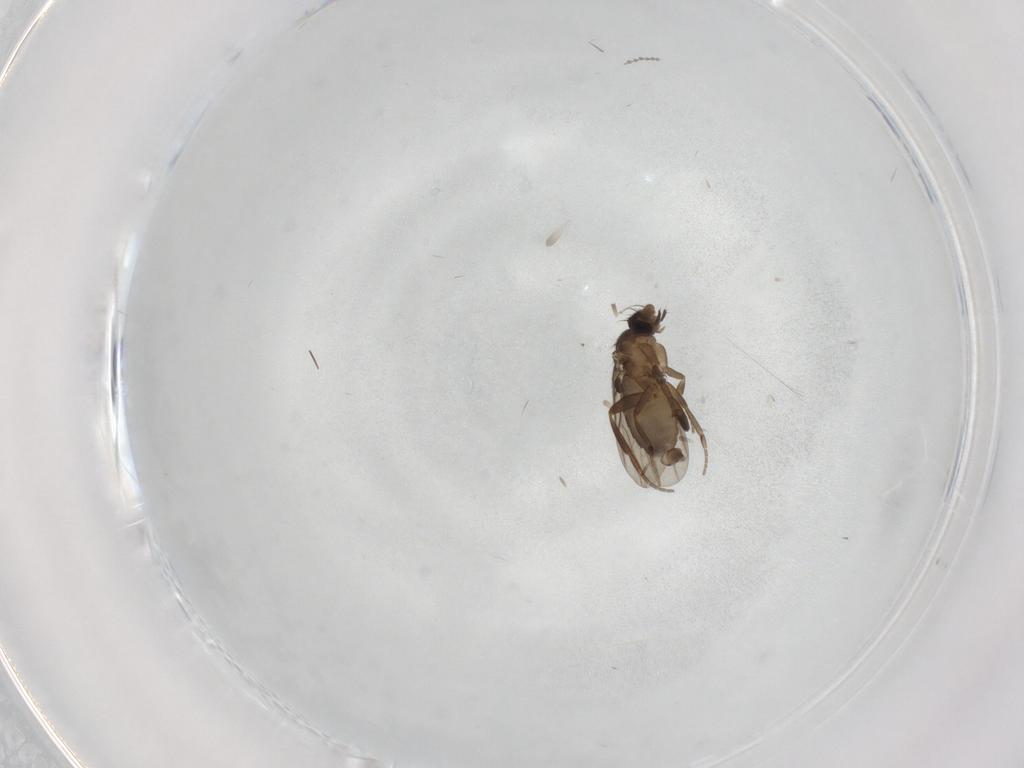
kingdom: Animalia
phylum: Arthropoda
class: Insecta
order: Diptera
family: Phoridae
